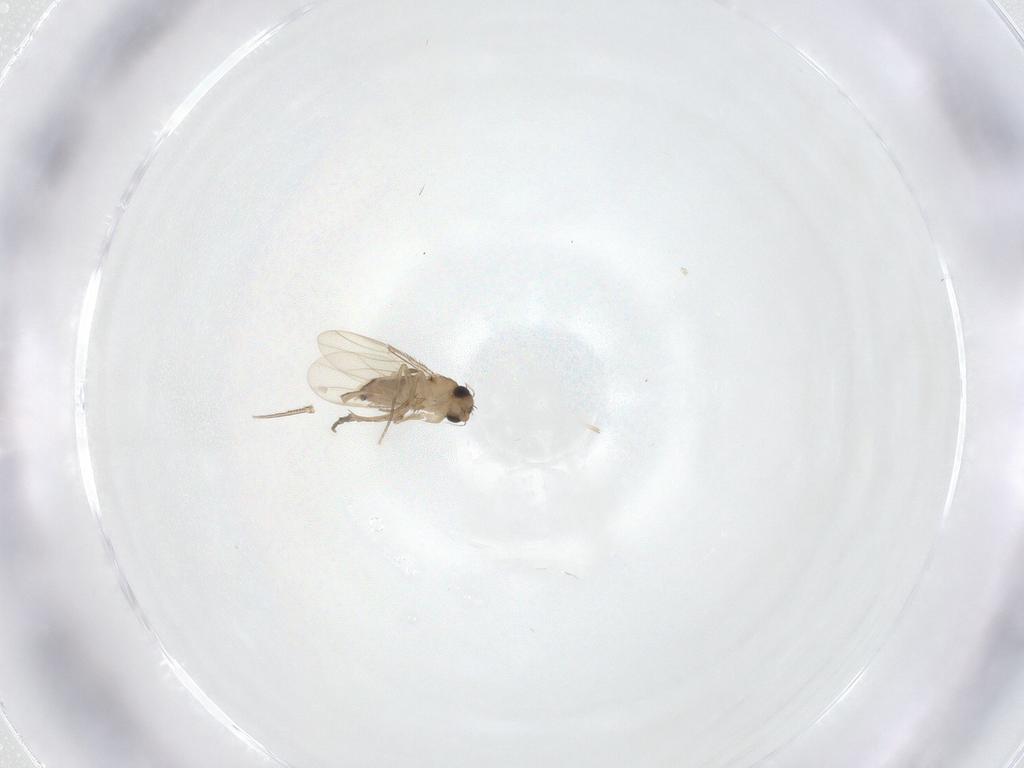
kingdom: Animalia
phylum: Arthropoda
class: Insecta
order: Diptera
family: Phoridae
